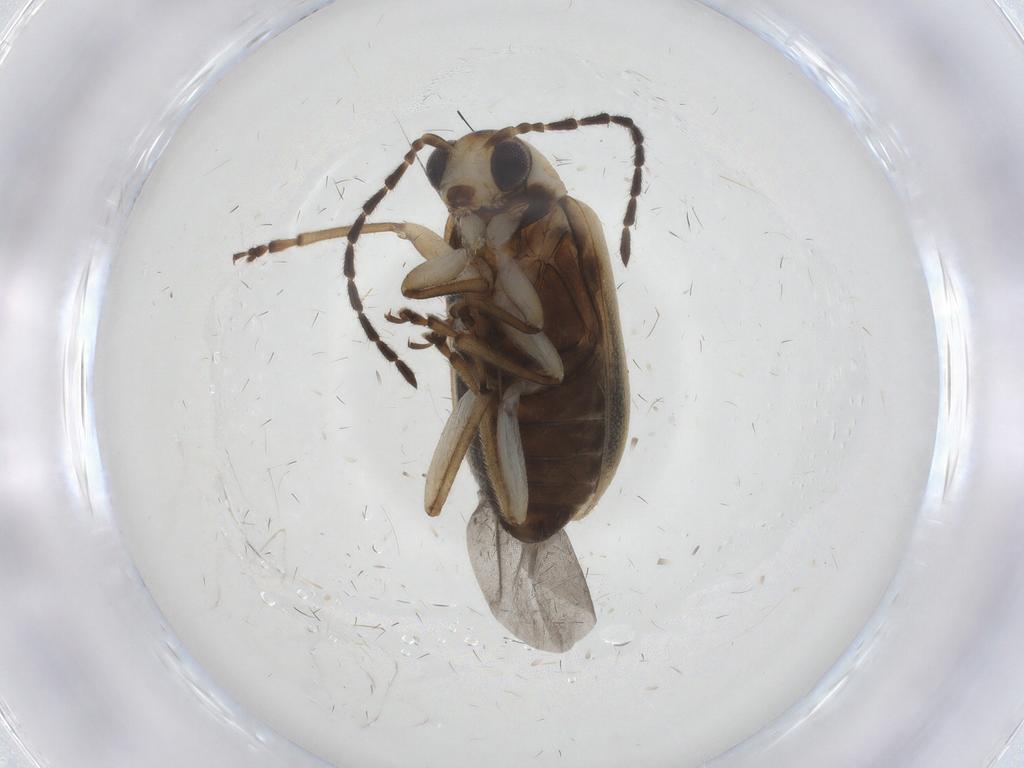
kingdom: Animalia
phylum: Arthropoda
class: Insecta
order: Coleoptera
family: Chrysomelidae
